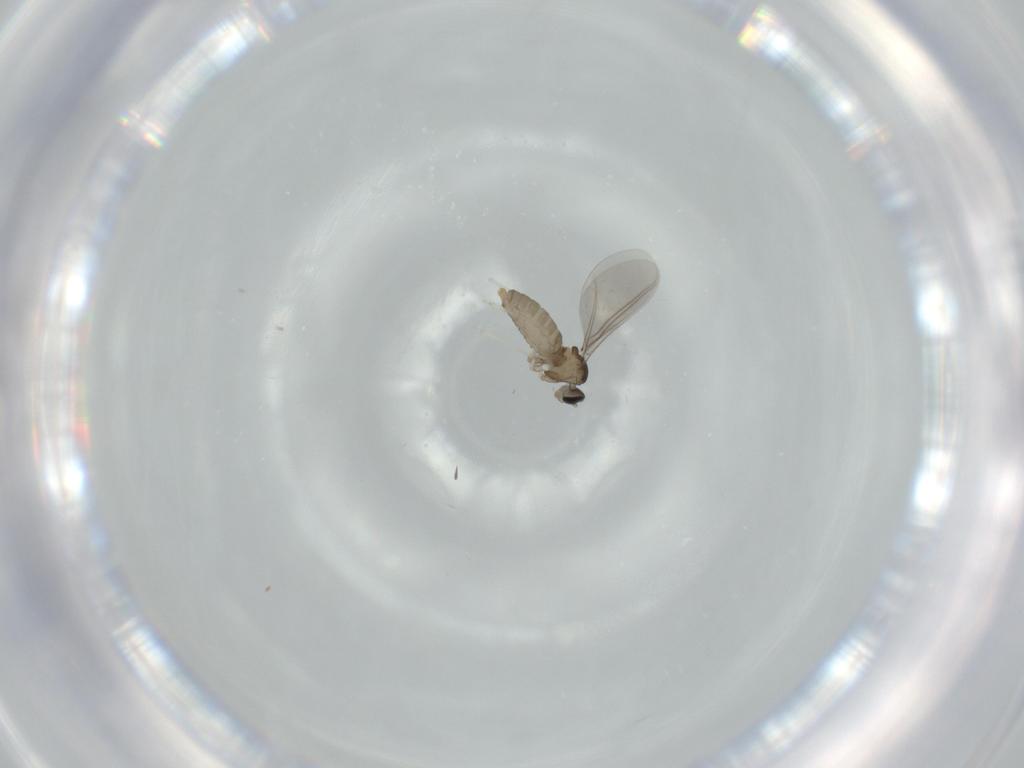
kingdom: Animalia
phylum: Arthropoda
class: Insecta
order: Diptera
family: Cecidomyiidae
